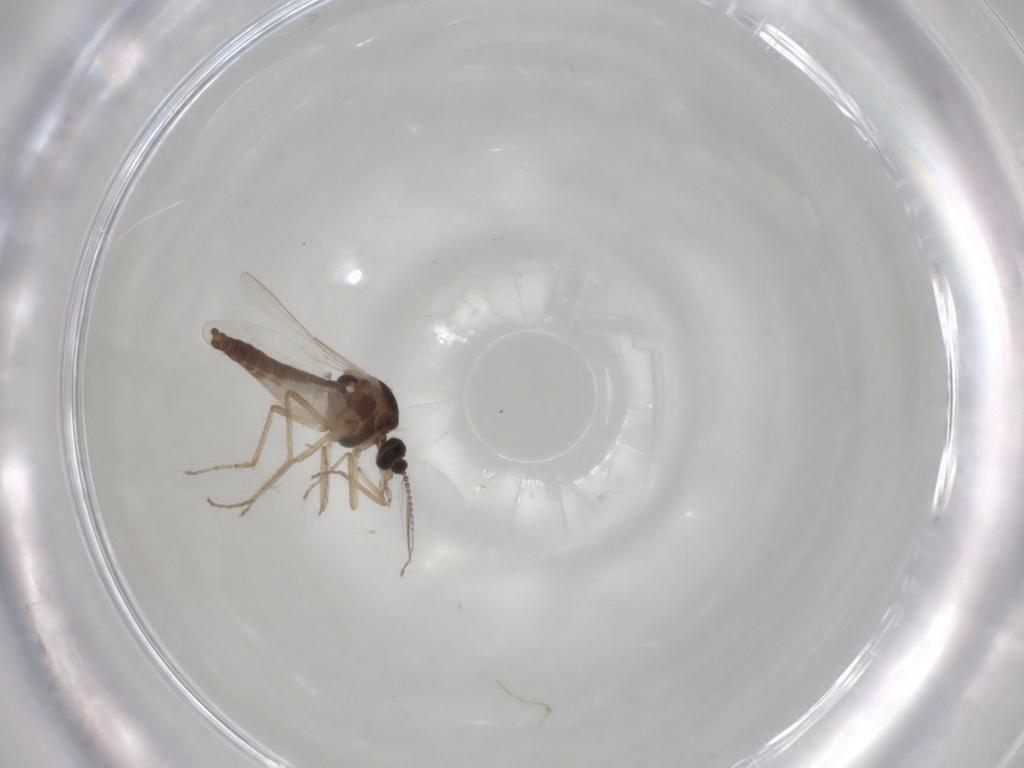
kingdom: Animalia
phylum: Arthropoda
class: Insecta
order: Diptera
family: Ceratopogonidae
